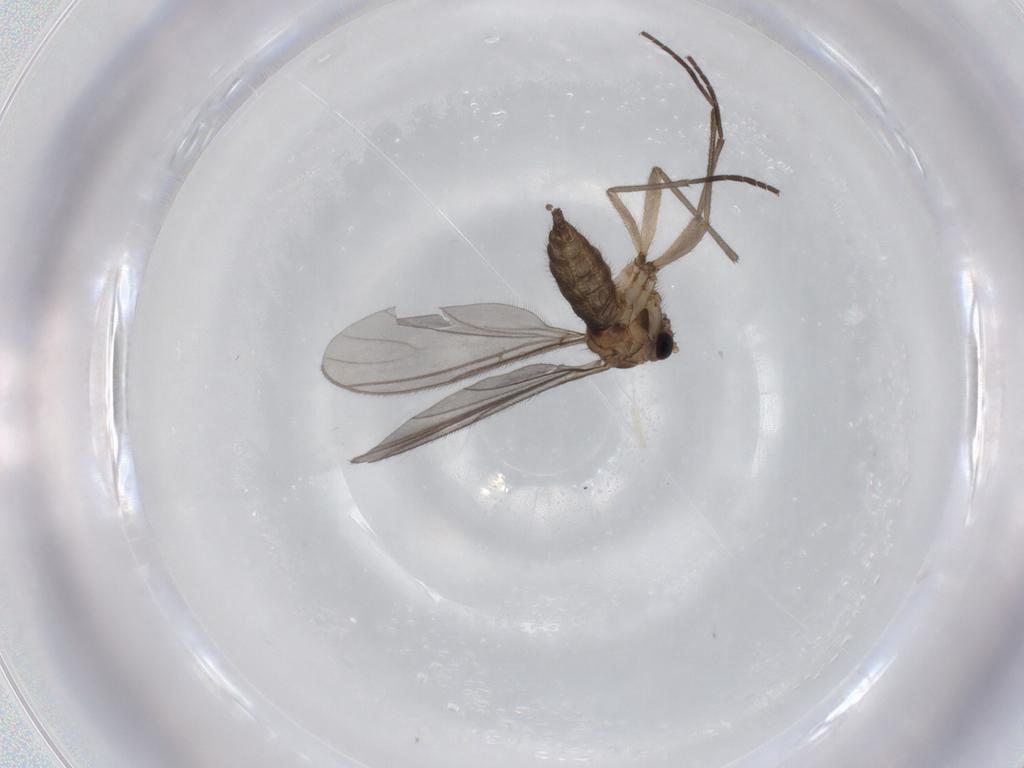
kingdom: Animalia
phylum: Arthropoda
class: Insecta
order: Diptera
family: Sciaridae
